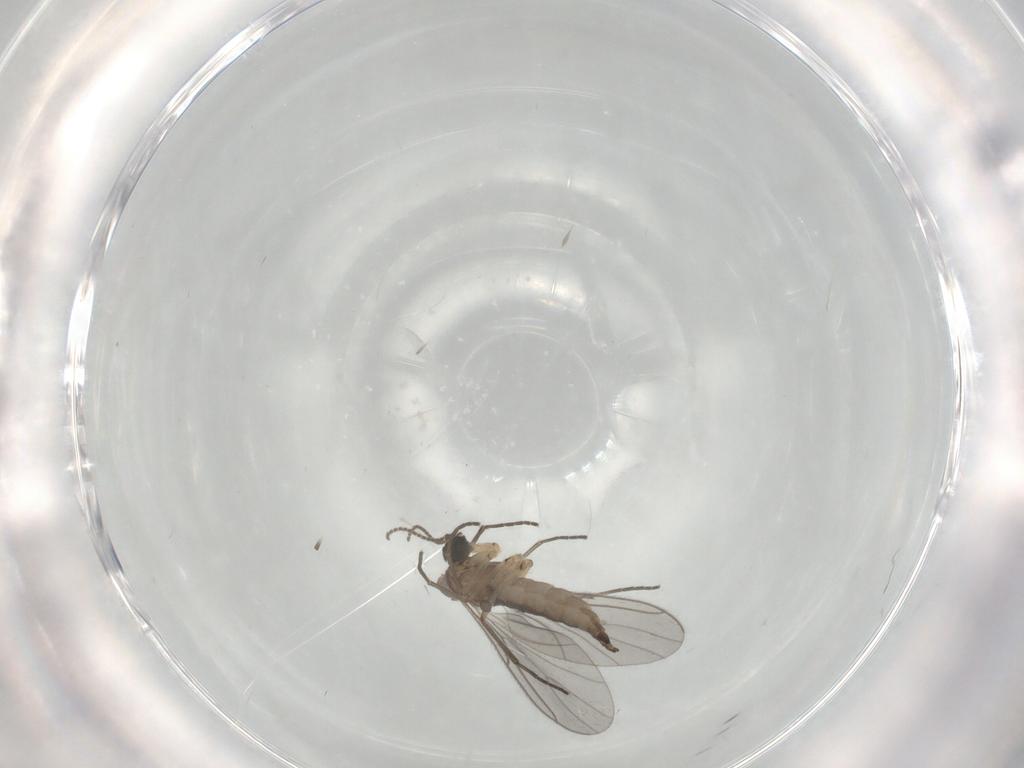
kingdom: Animalia
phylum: Arthropoda
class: Insecta
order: Diptera
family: Sciaridae
